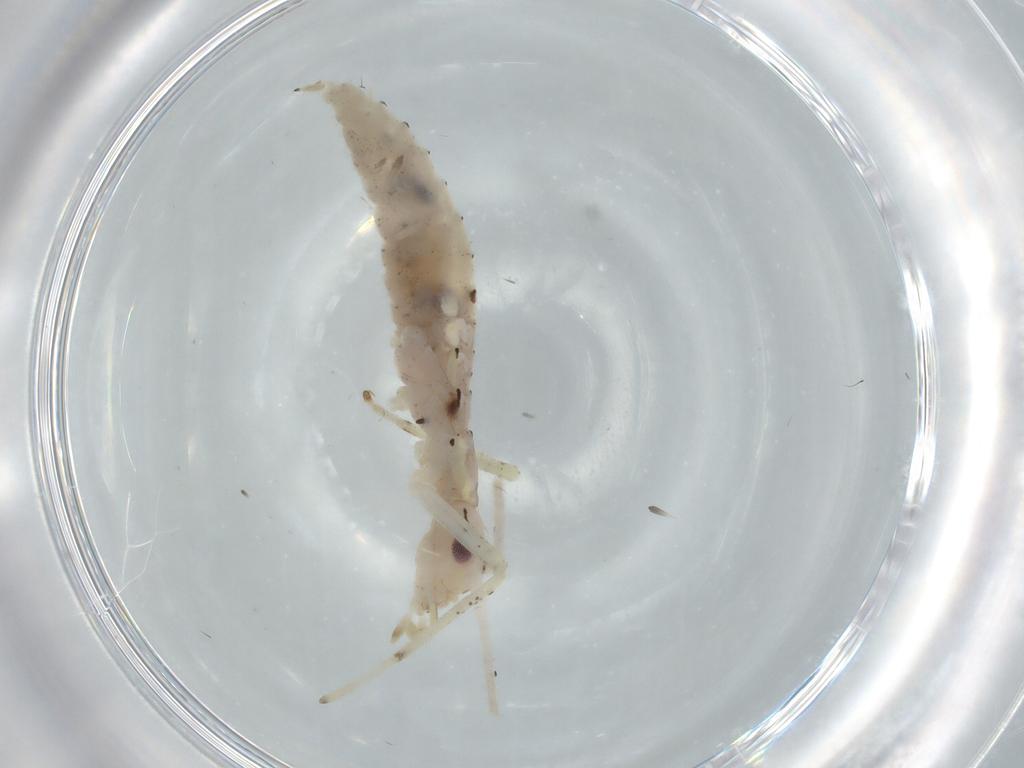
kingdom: Animalia
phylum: Arthropoda
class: Insecta
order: Orthoptera
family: Oecanthidae
